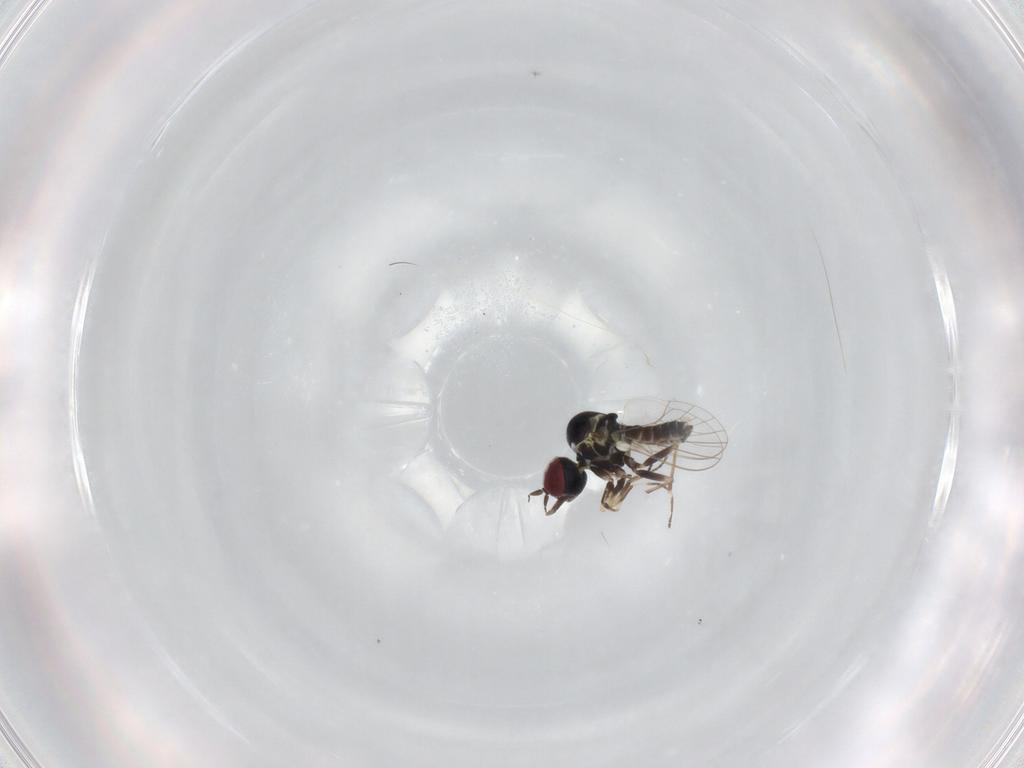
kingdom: Animalia
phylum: Arthropoda
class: Insecta
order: Diptera
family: Mythicomyiidae
